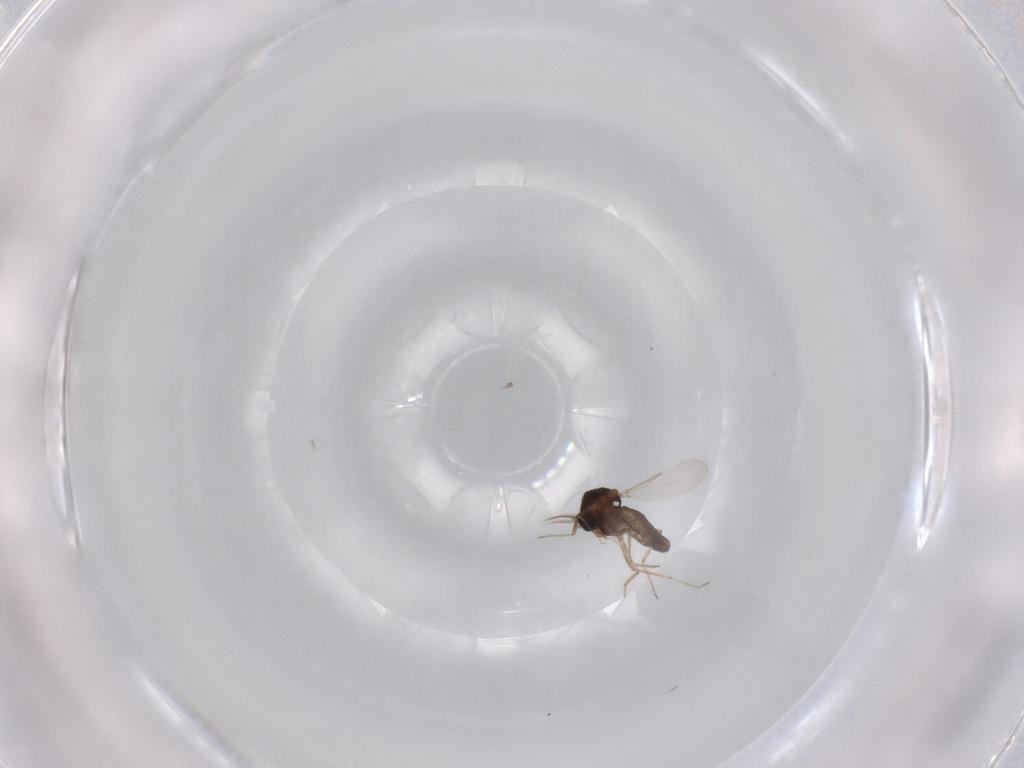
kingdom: Animalia
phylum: Arthropoda
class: Insecta
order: Diptera
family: Ceratopogonidae
